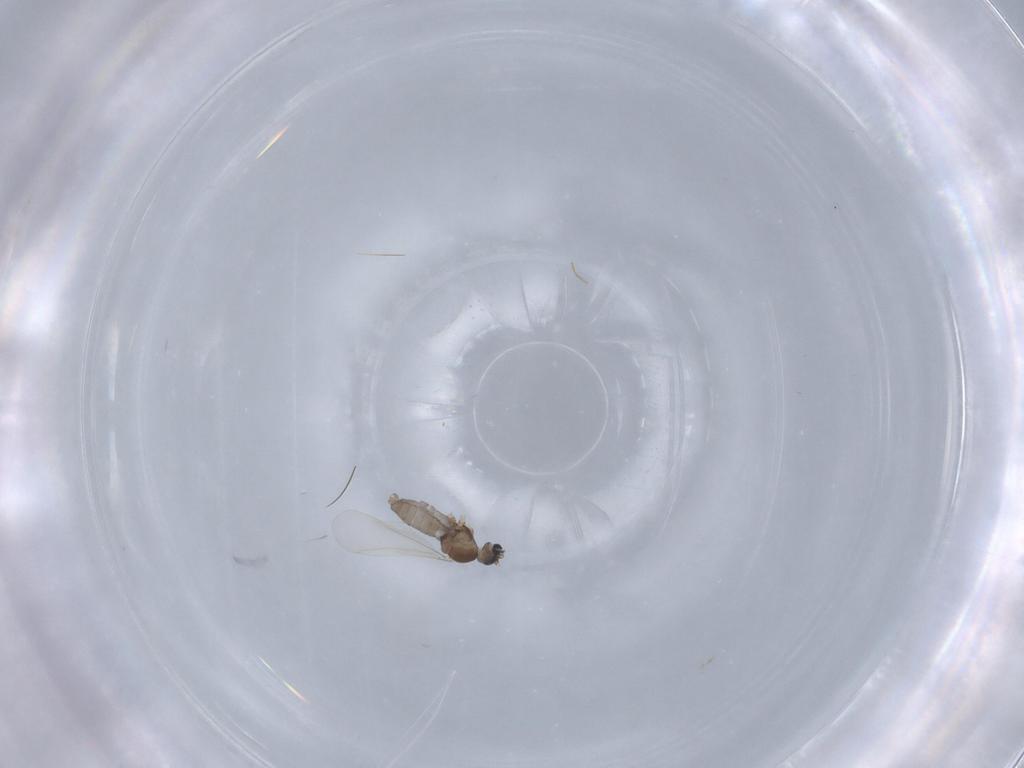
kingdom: Animalia
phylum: Arthropoda
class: Insecta
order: Diptera
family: Cecidomyiidae
